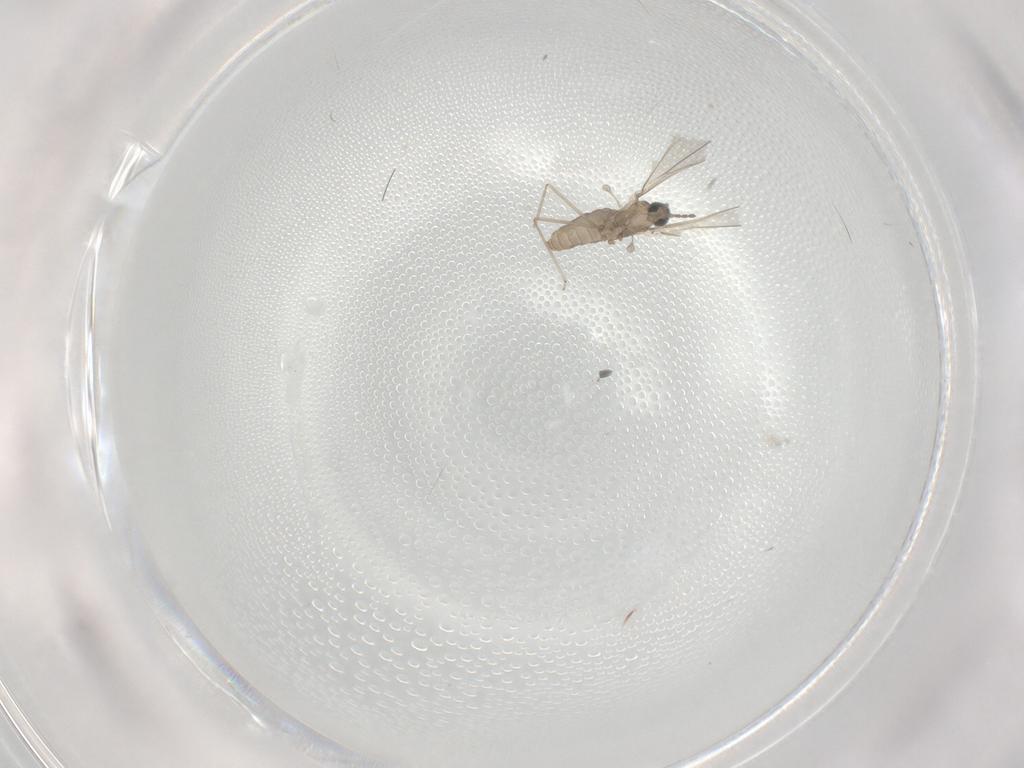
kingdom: Animalia
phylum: Arthropoda
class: Insecta
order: Diptera
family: Cecidomyiidae
